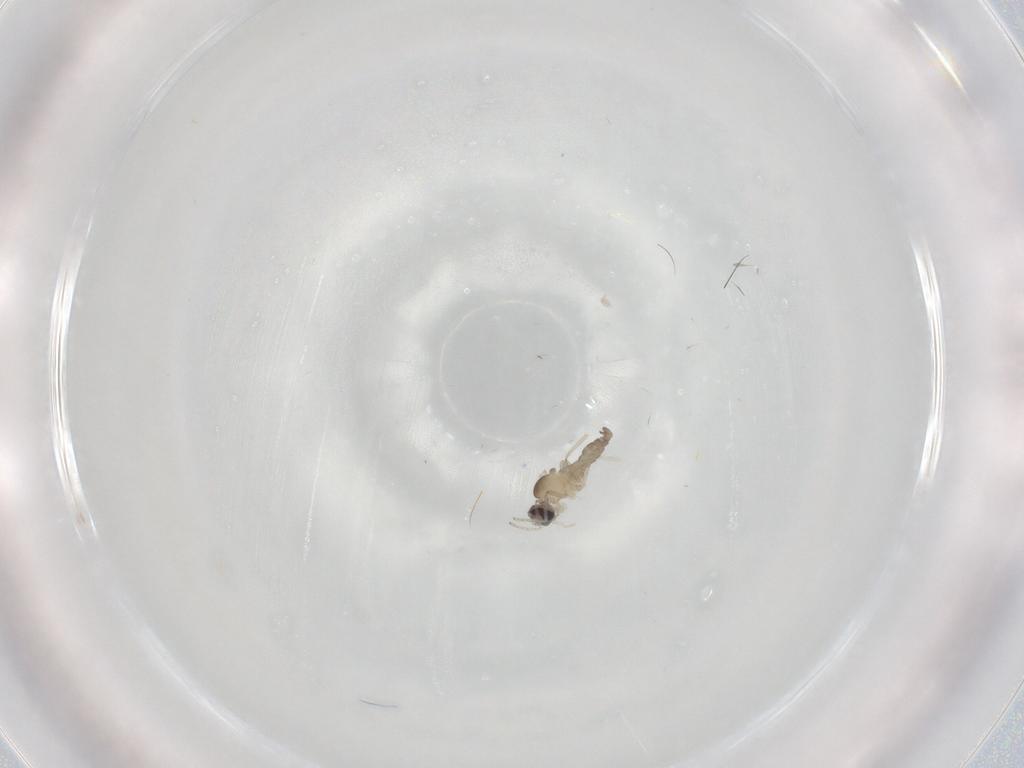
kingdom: Animalia
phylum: Arthropoda
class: Insecta
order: Diptera
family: Cecidomyiidae
